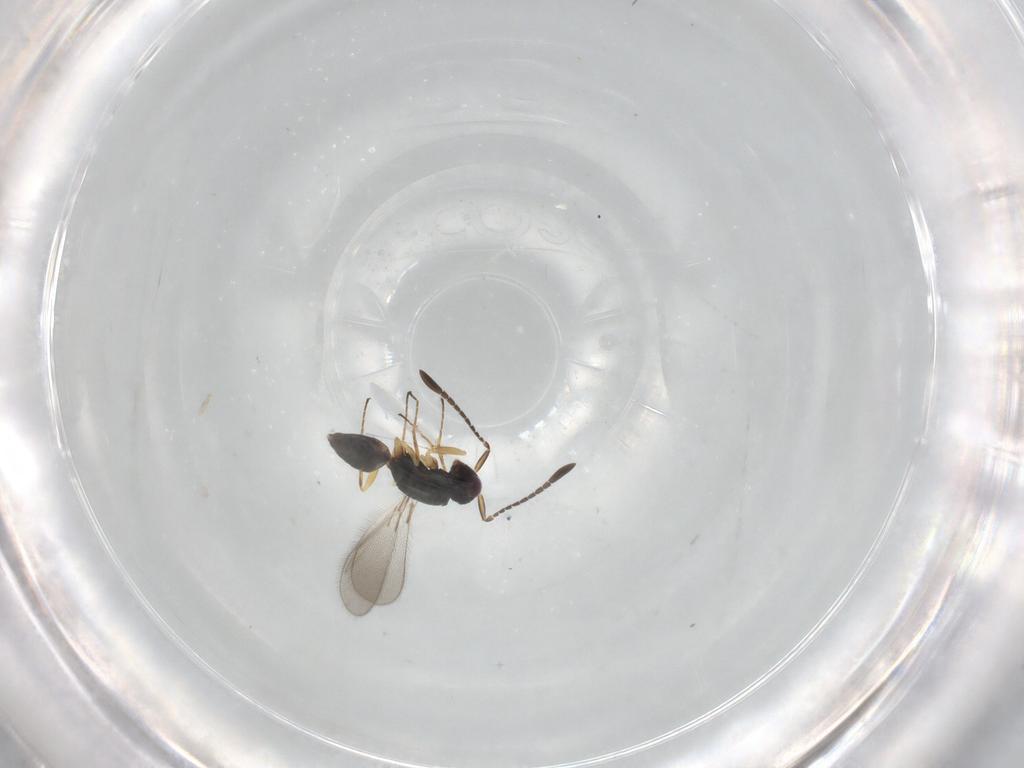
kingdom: Animalia
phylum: Arthropoda
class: Insecta
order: Hymenoptera
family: Mymaridae
